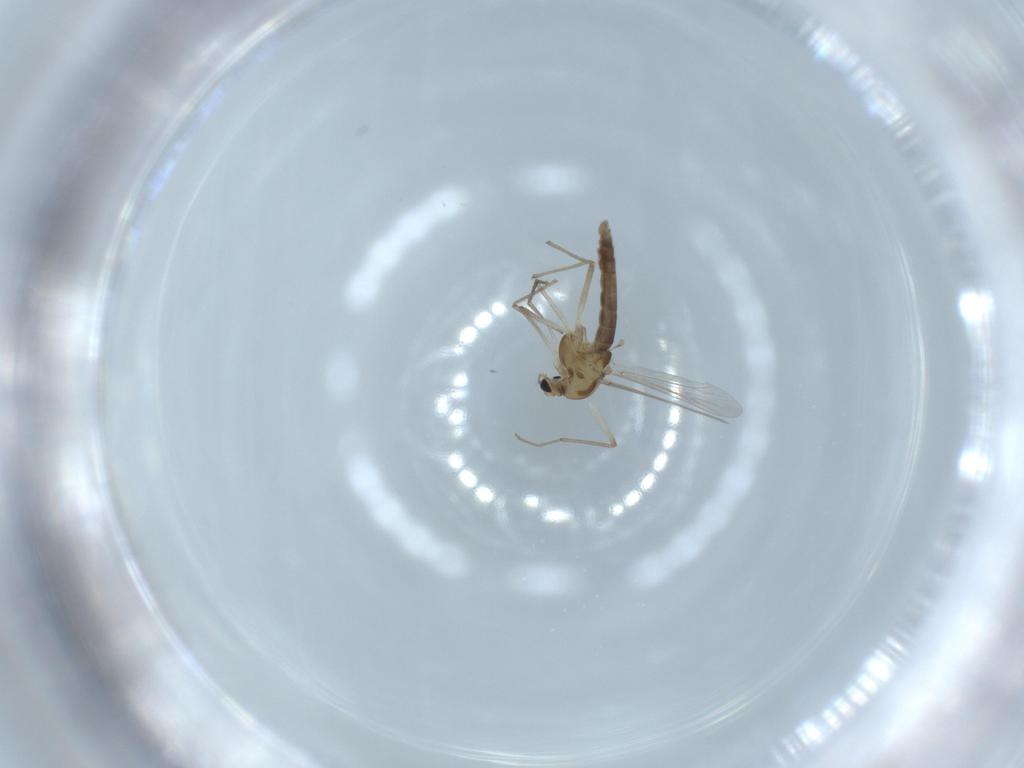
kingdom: Animalia
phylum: Arthropoda
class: Insecta
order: Diptera
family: Chironomidae
